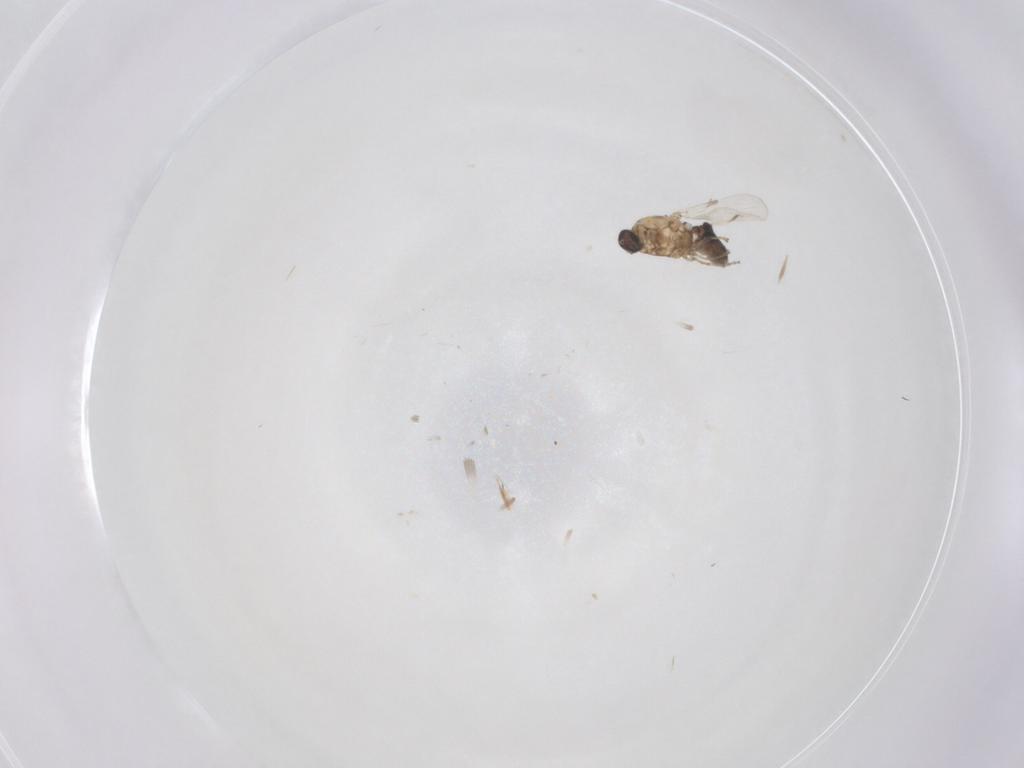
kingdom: Animalia
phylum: Arthropoda
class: Insecta
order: Diptera
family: Ceratopogonidae
